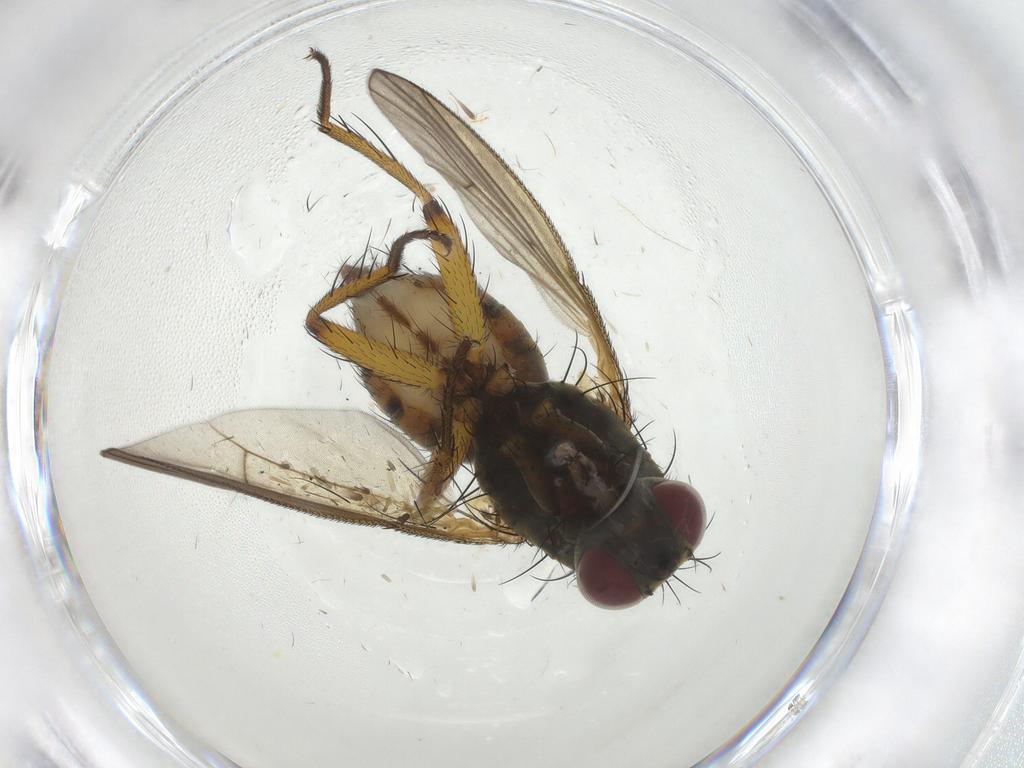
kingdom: Animalia
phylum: Arthropoda
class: Insecta
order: Diptera
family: Muscidae
